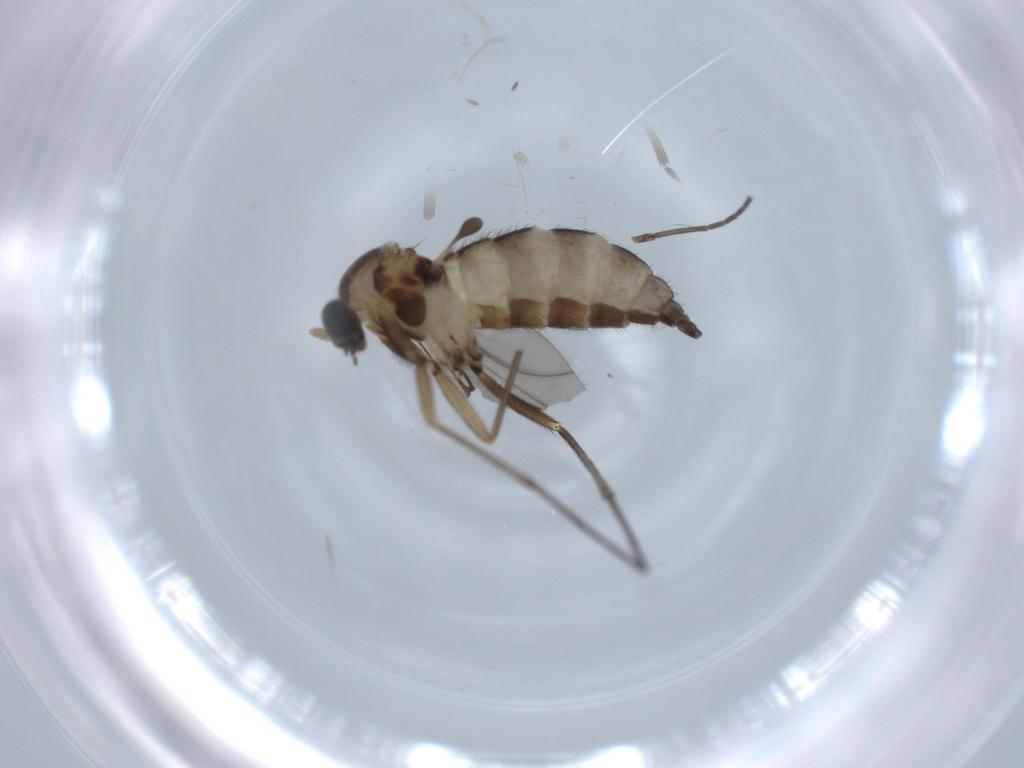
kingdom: Animalia
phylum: Arthropoda
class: Insecta
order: Diptera
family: Sciaridae
